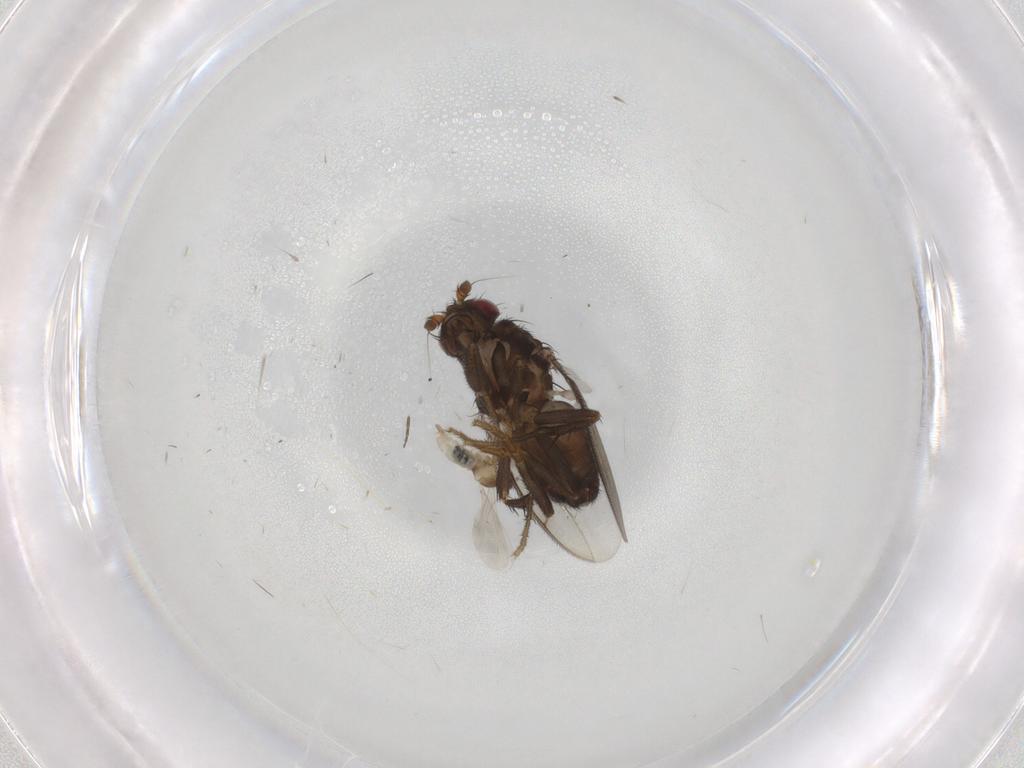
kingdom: Animalia
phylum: Arthropoda
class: Insecta
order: Diptera
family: Sphaeroceridae
